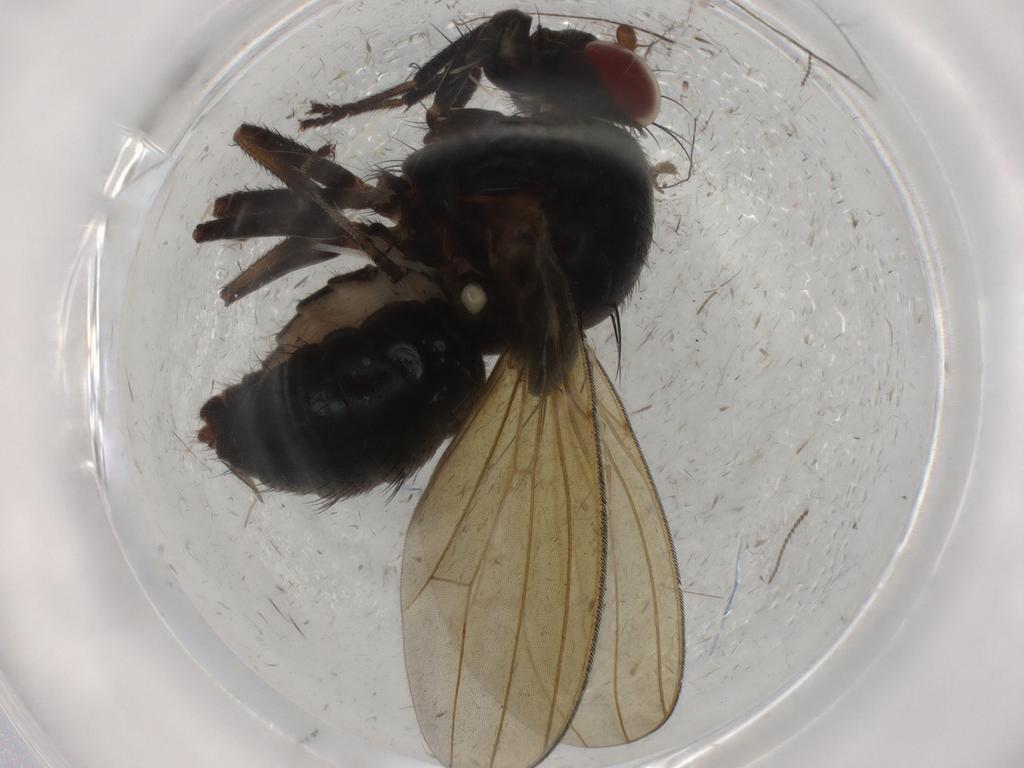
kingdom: Animalia
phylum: Arthropoda
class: Insecta
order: Diptera
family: Lauxaniidae
